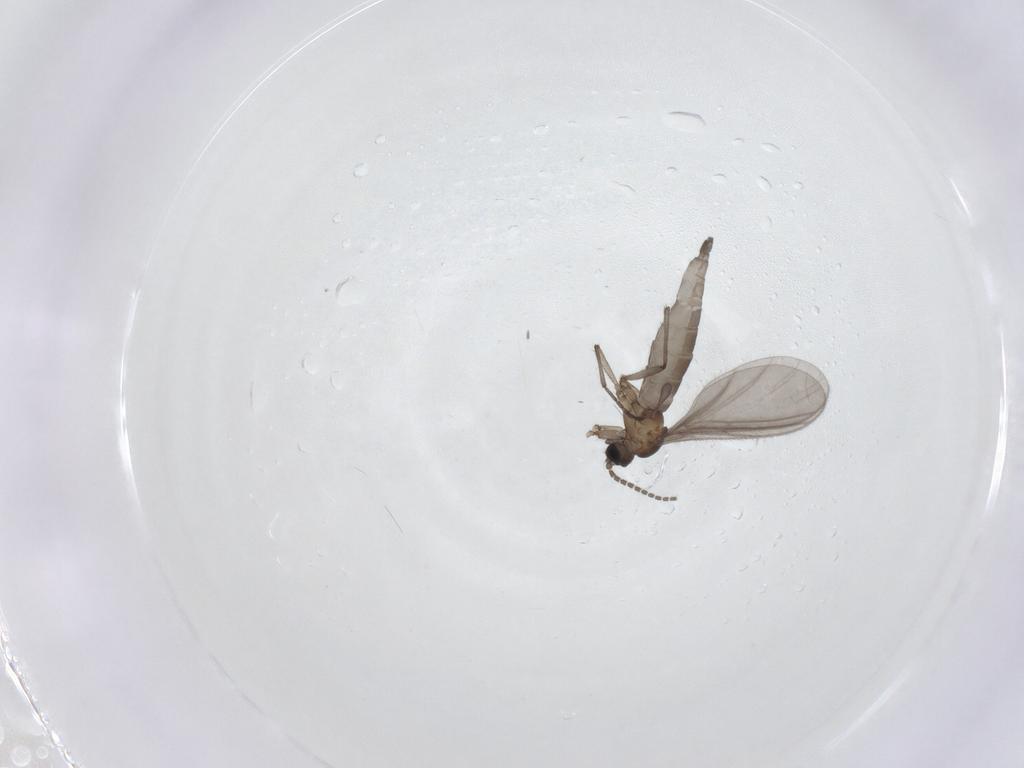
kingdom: Animalia
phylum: Arthropoda
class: Insecta
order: Diptera
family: Sciaridae
